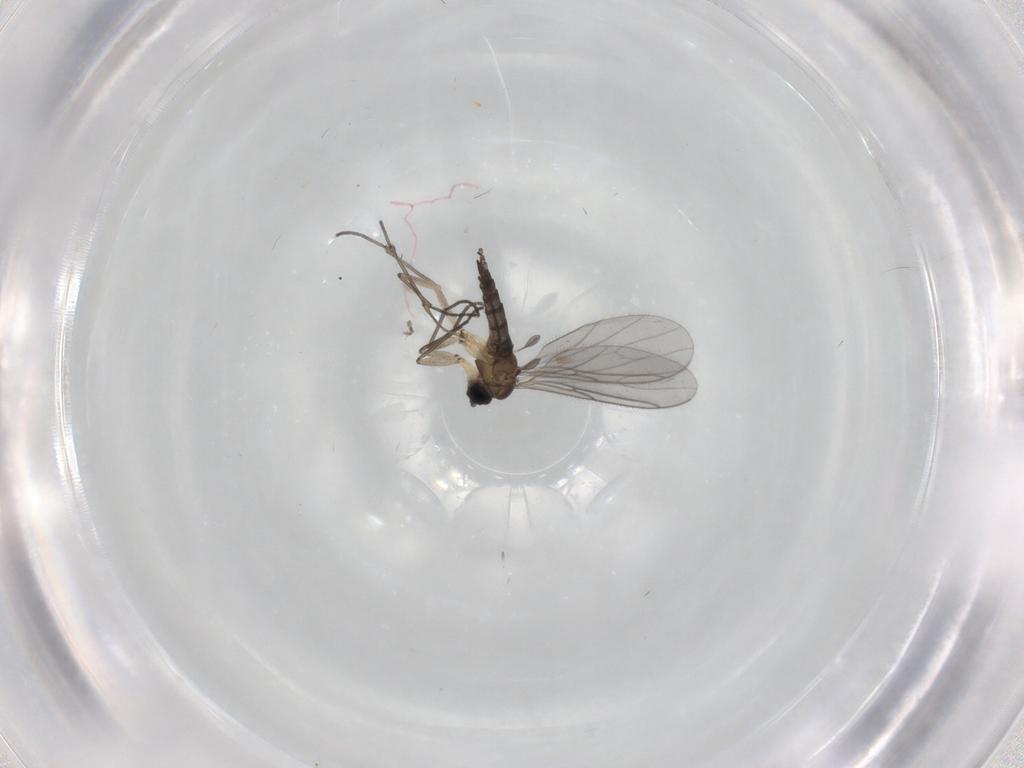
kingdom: Animalia
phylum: Arthropoda
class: Insecta
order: Diptera
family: Sciaridae
